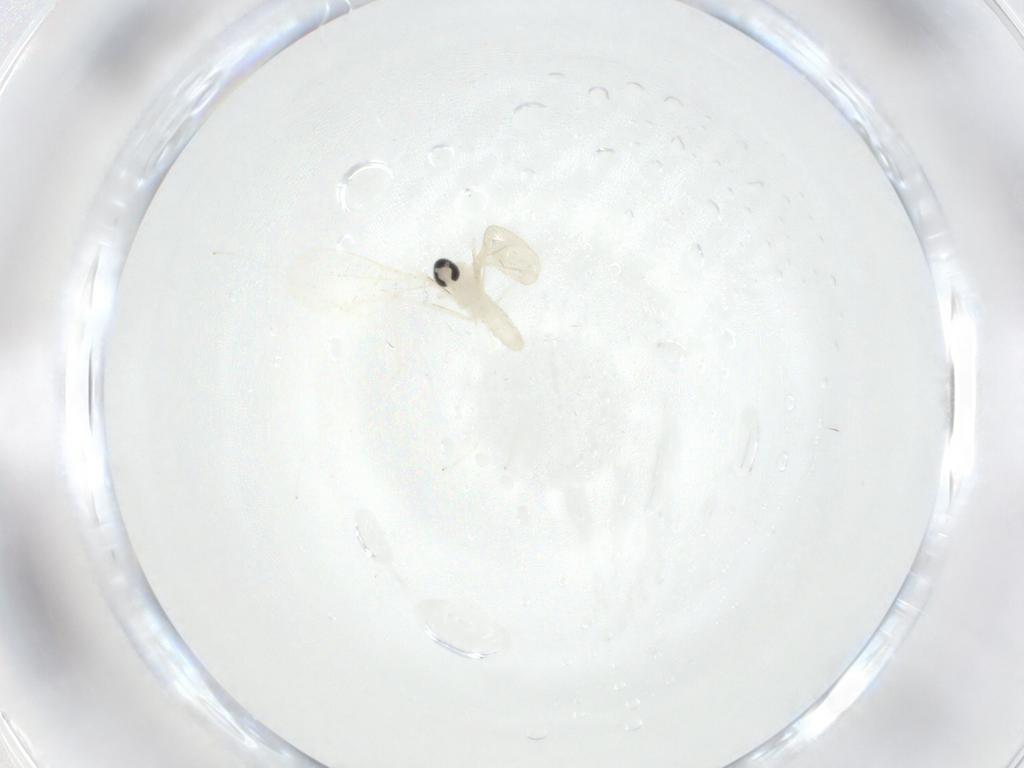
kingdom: Animalia
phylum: Arthropoda
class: Insecta
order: Diptera
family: Cecidomyiidae
